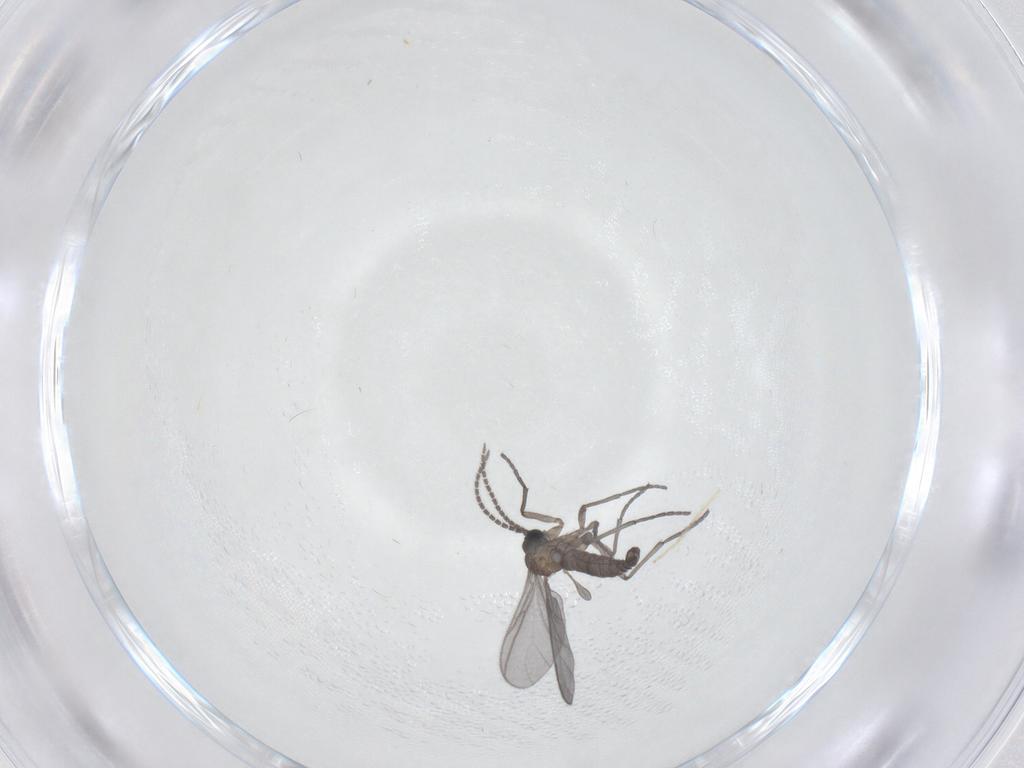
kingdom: Animalia
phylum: Arthropoda
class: Insecta
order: Diptera
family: Sciaridae
